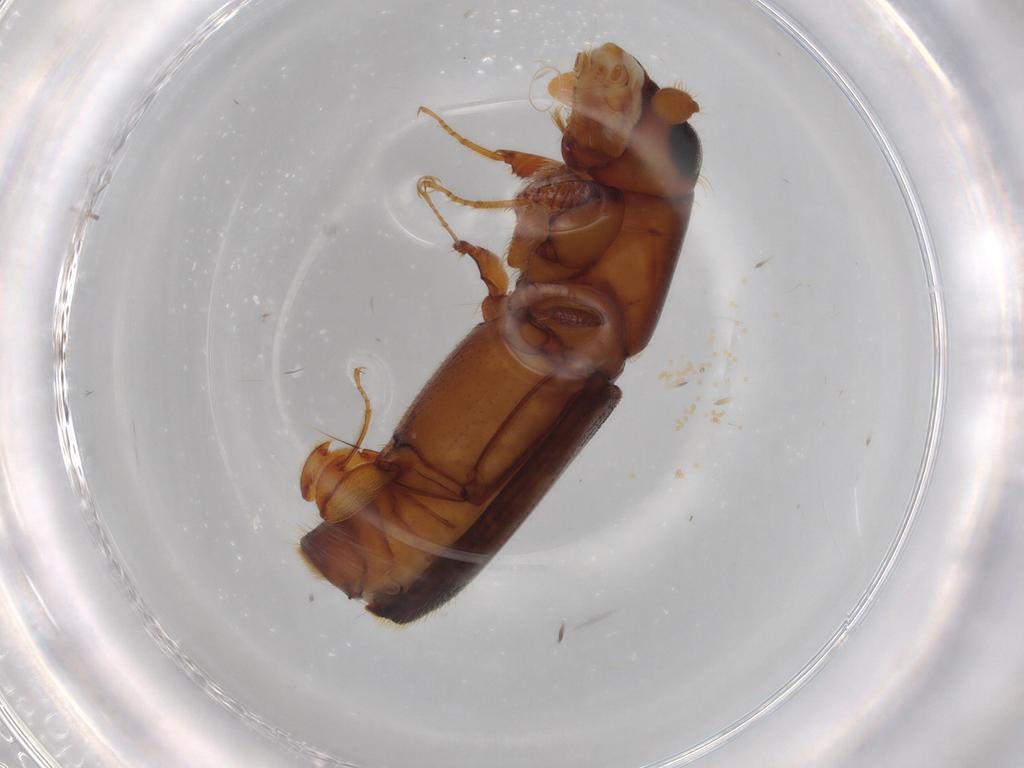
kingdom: Animalia
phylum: Arthropoda
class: Insecta
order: Coleoptera
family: Curculionidae
